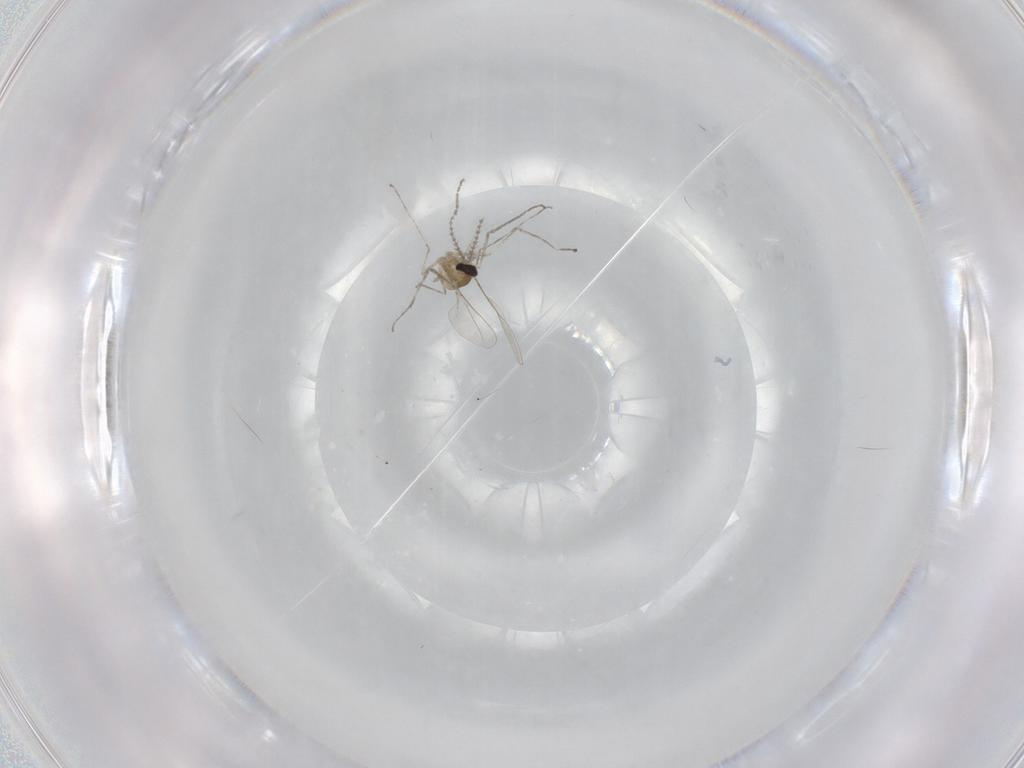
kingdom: Animalia
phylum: Arthropoda
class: Insecta
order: Diptera
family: Cecidomyiidae
